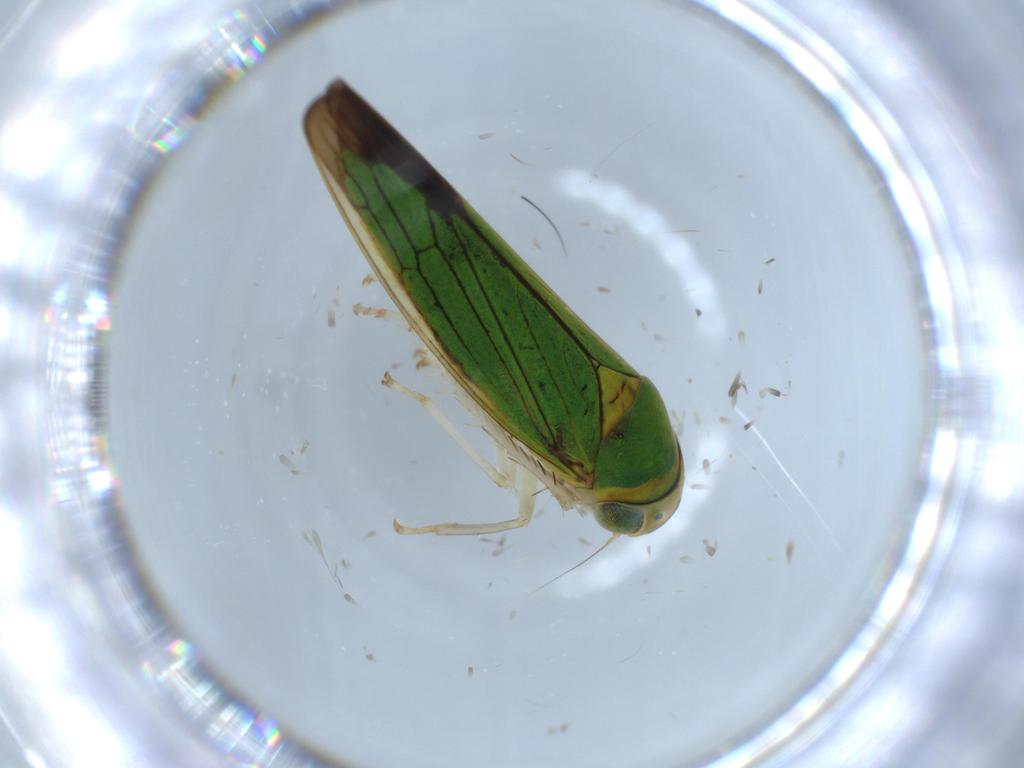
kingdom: Animalia
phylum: Arthropoda
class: Insecta
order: Hemiptera
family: Cicadellidae
